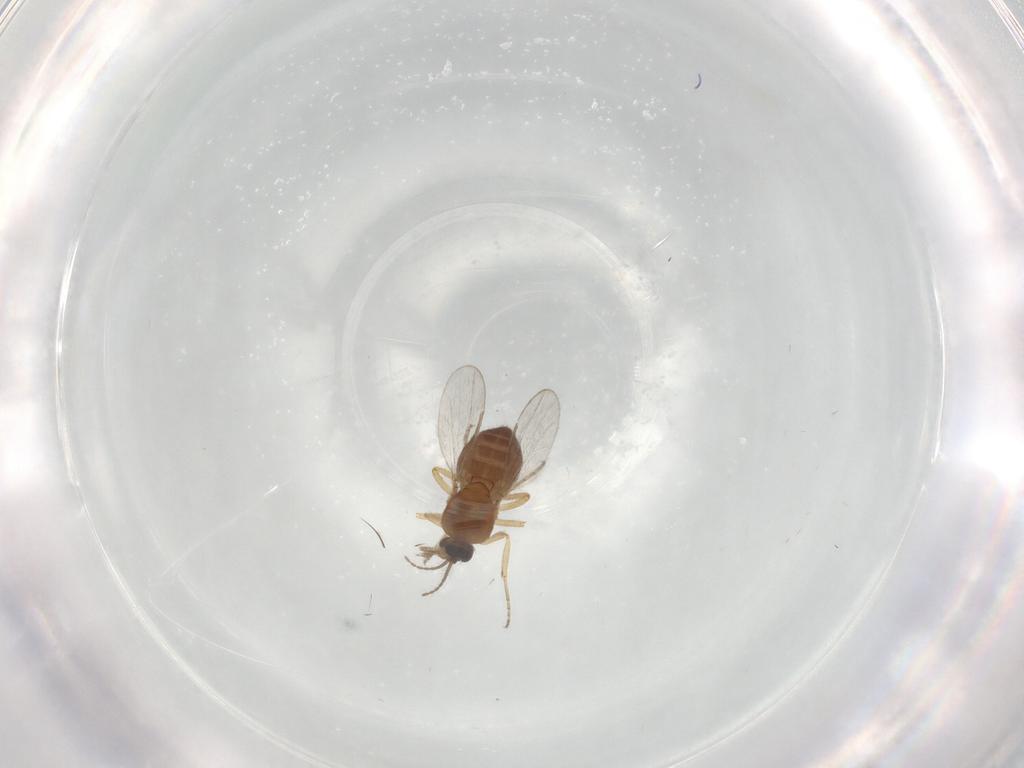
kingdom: Animalia
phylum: Arthropoda
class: Insecta
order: Diptera
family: Ceratopogonidae
